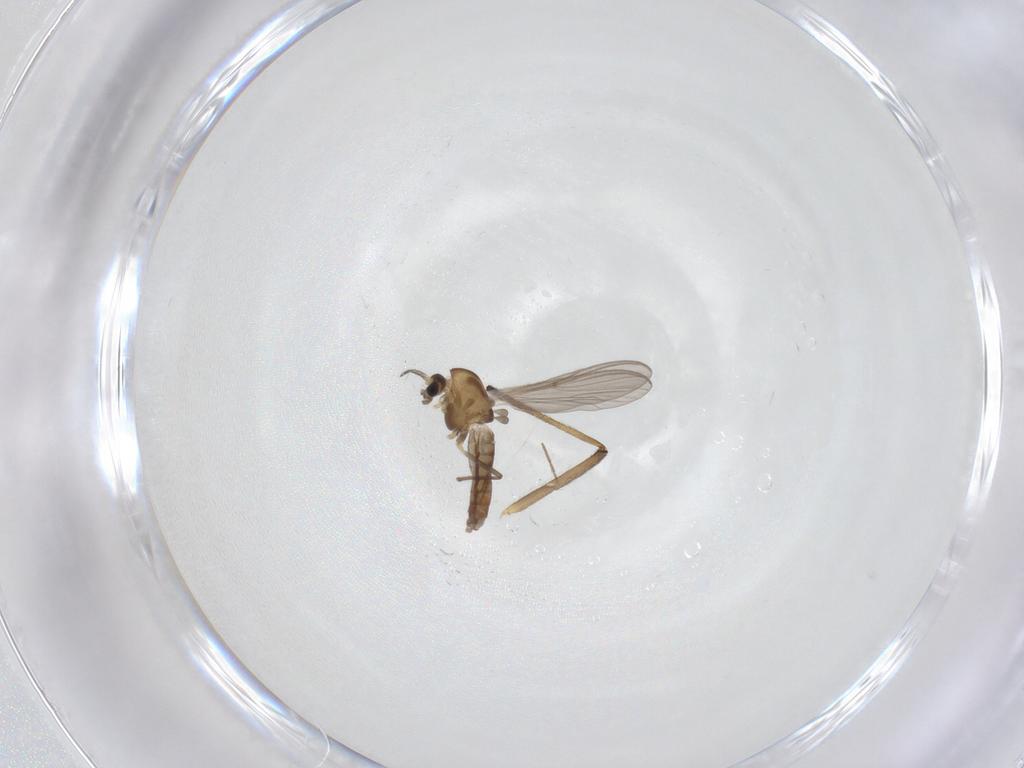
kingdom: Animalia
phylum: Arthropoda
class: Insecta
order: Diptera
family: Chironomidae
